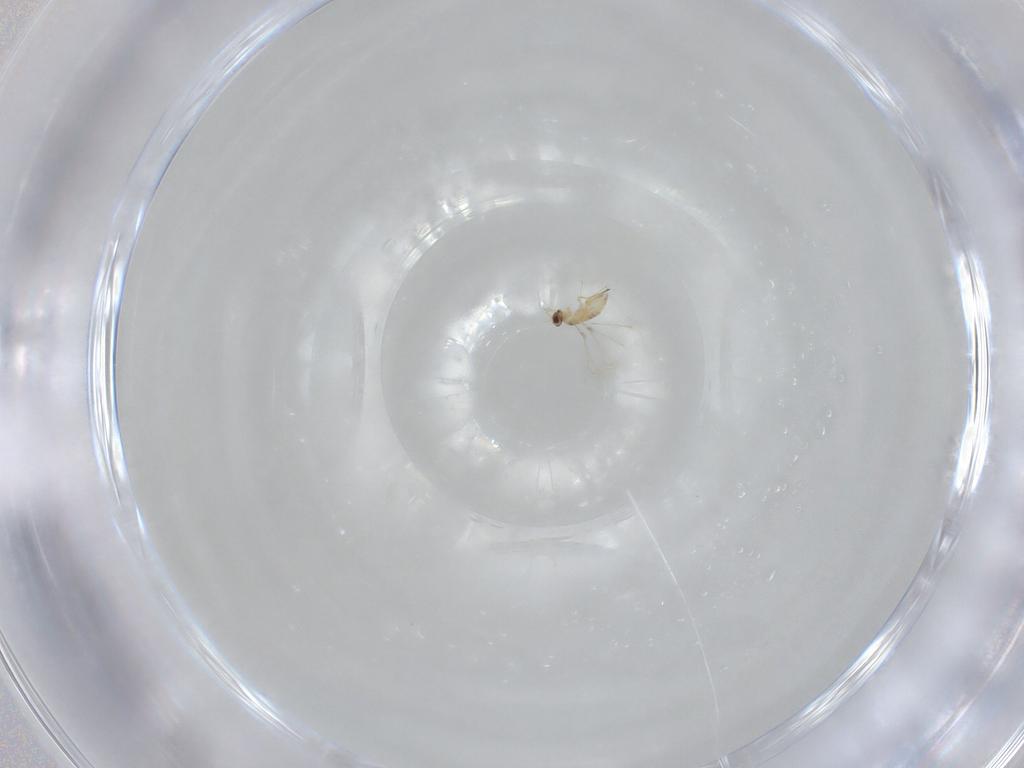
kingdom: Animalia
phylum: Arthropoda
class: Insecta
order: Hymenoptera
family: Mymaridae
